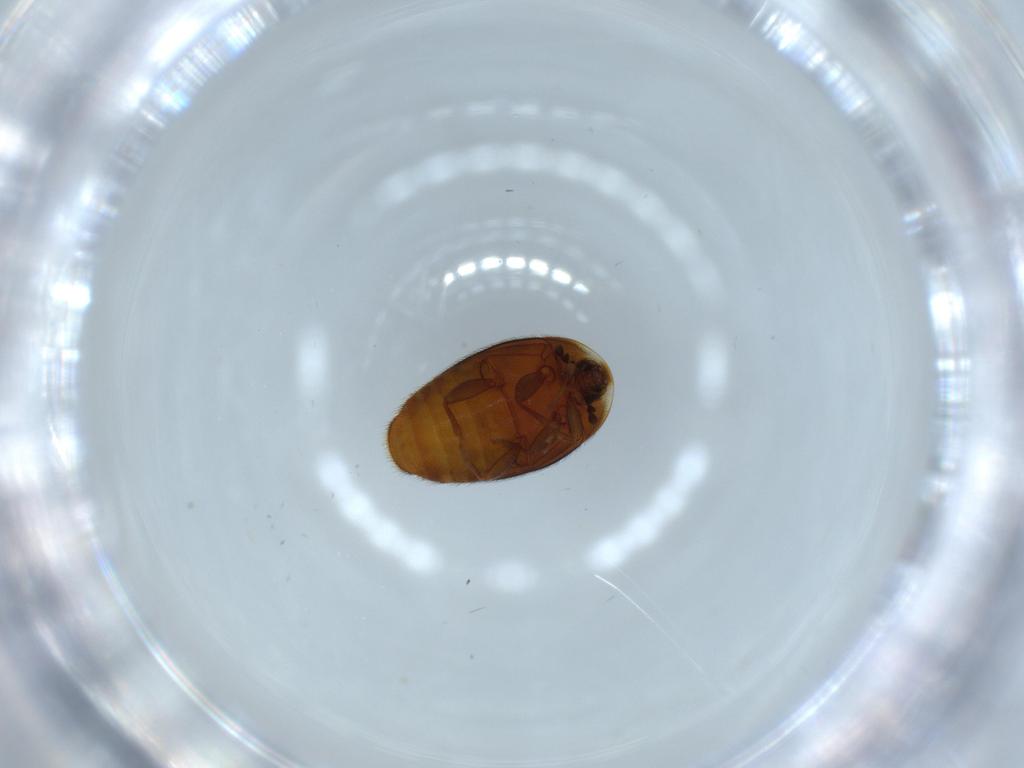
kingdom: Animalia
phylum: Arthropoda
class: Insecta
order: Coleoptera
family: Corylophidae
